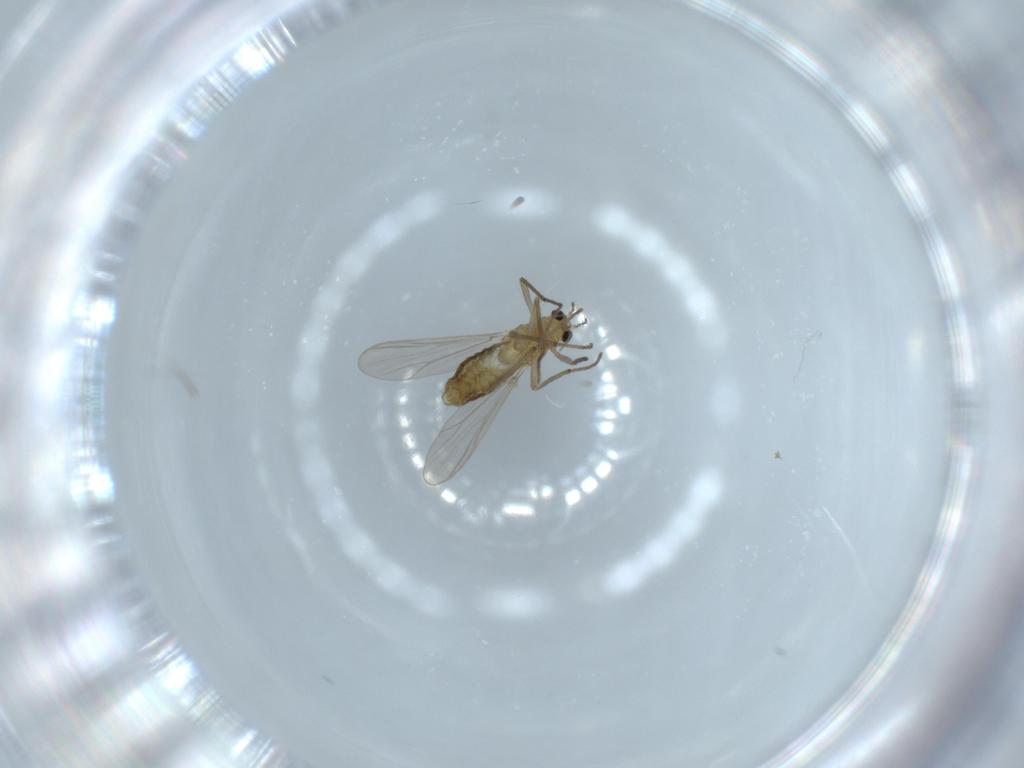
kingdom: Animalia
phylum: Arthropoda
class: Insecta
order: Diptera
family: Chironomidae
